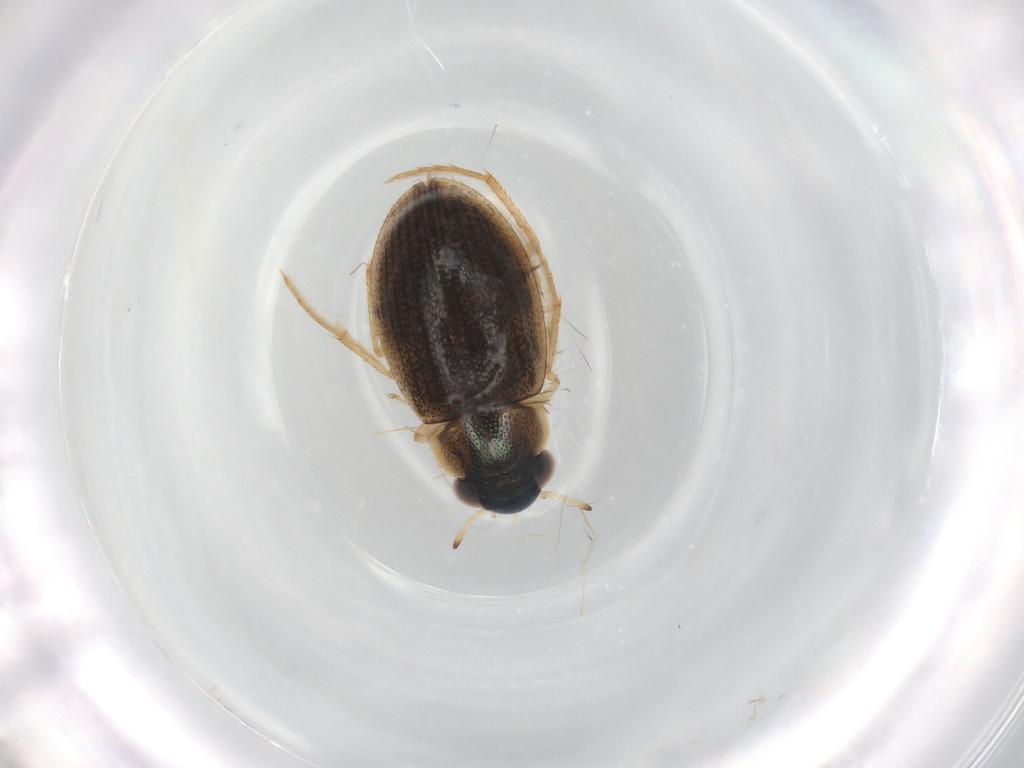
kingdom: Animalia
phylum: Arthropoda
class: Insecta
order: Coleoptera
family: Hydrophilidae
